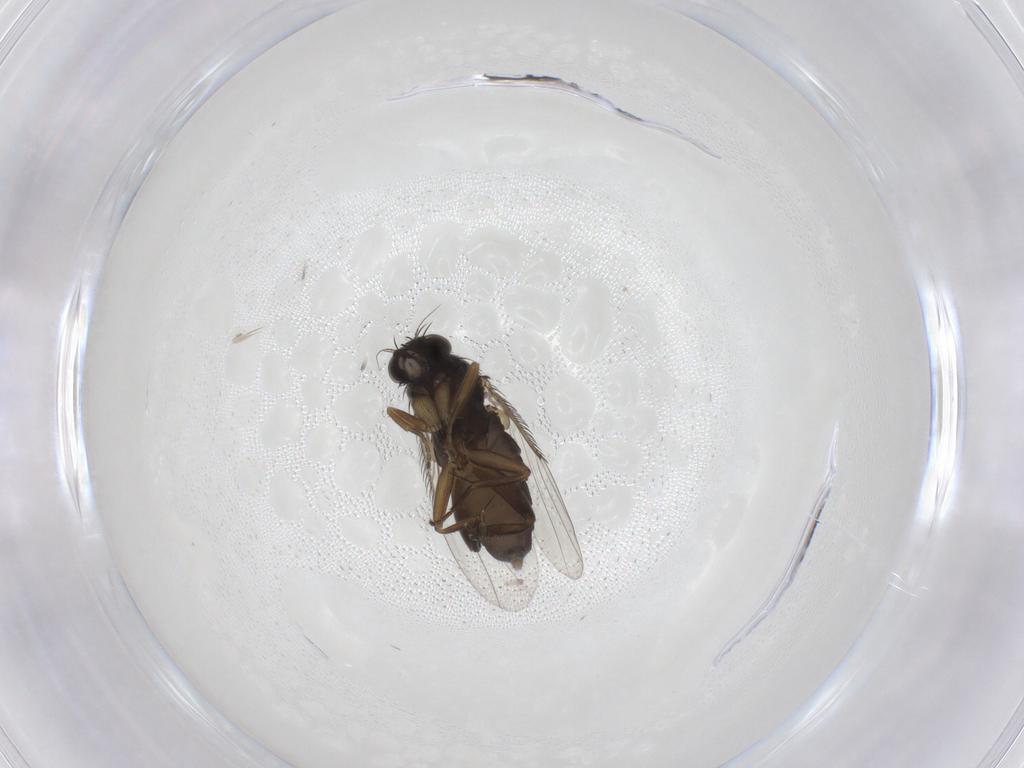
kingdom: Animalia
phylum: Arthropoda
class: Insecta
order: Diptera
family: Phoridae
